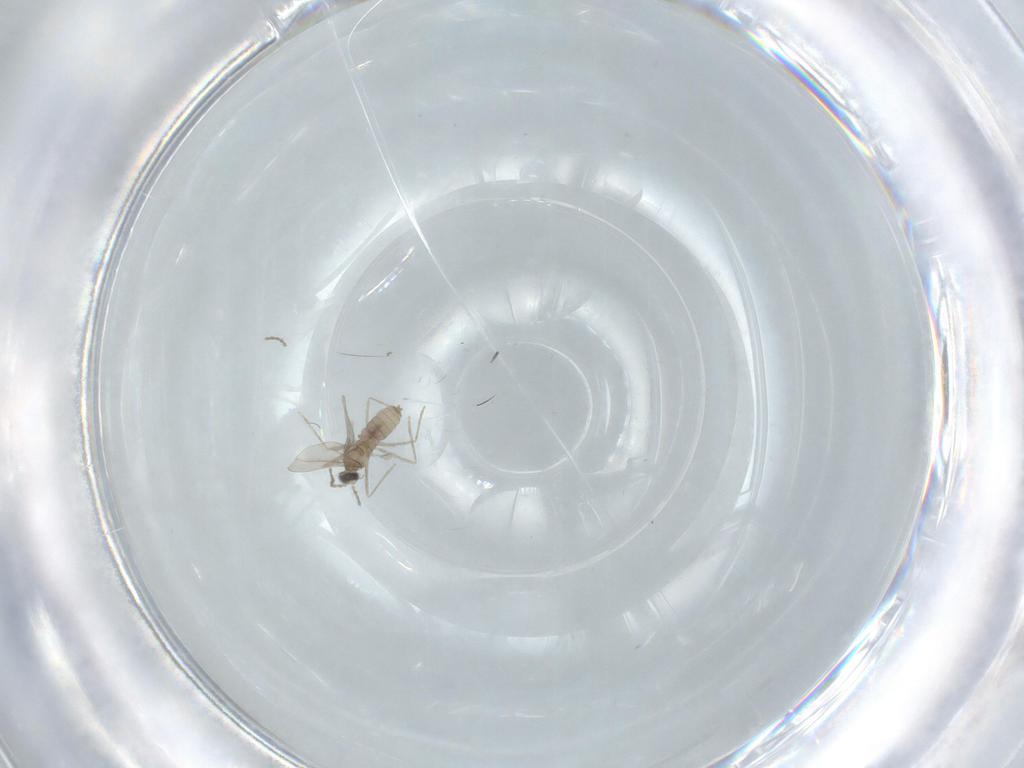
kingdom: Animalia
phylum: Arthropoda
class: Insecta
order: Diptera
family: Chironomidae
